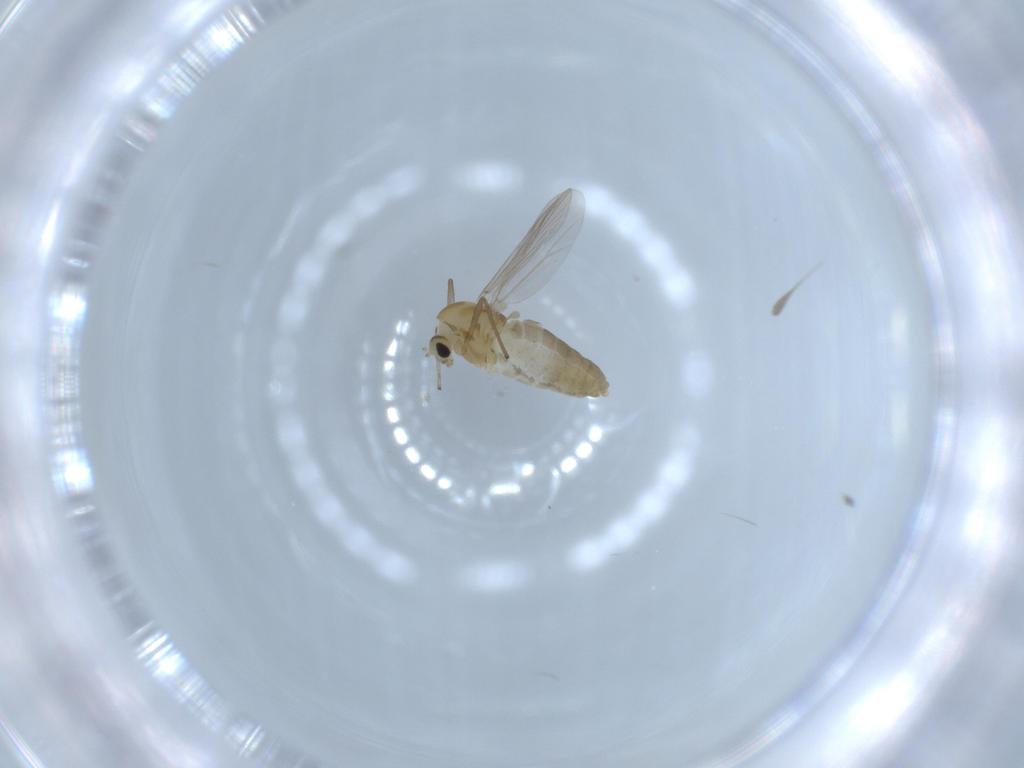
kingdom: Animalia
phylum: Arthropoda
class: Insecta
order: Diptera
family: Chironomidae
